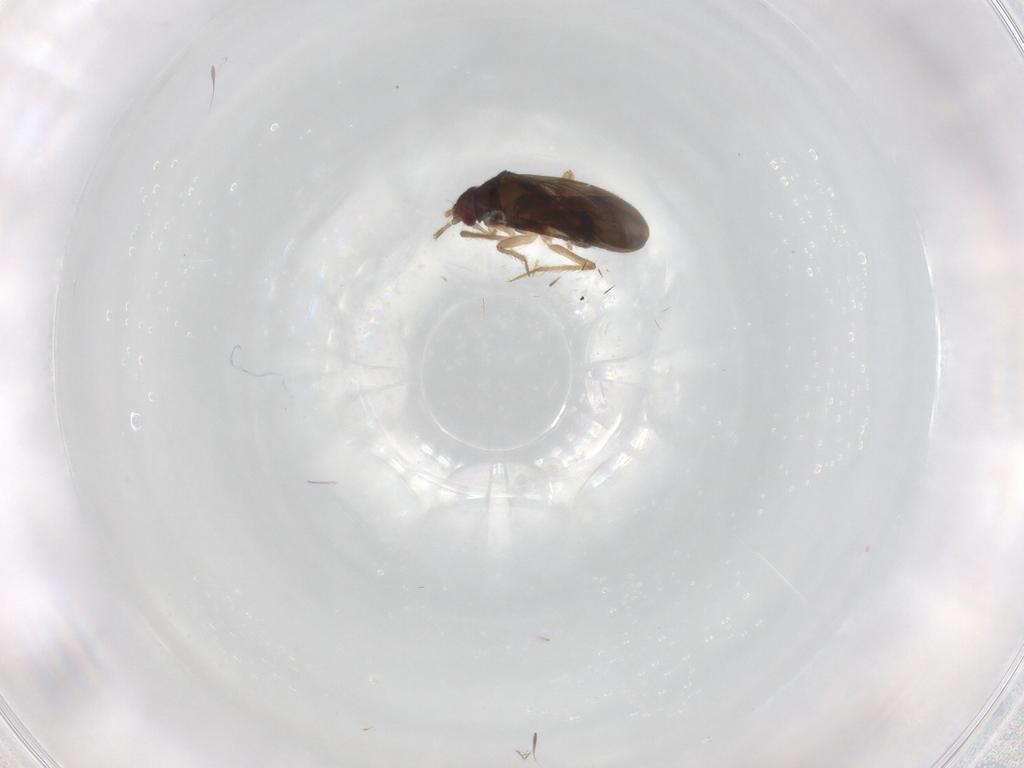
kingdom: Animalia
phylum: Arthropoda
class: Insecta
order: Hemiptera
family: Ceratocombidae
